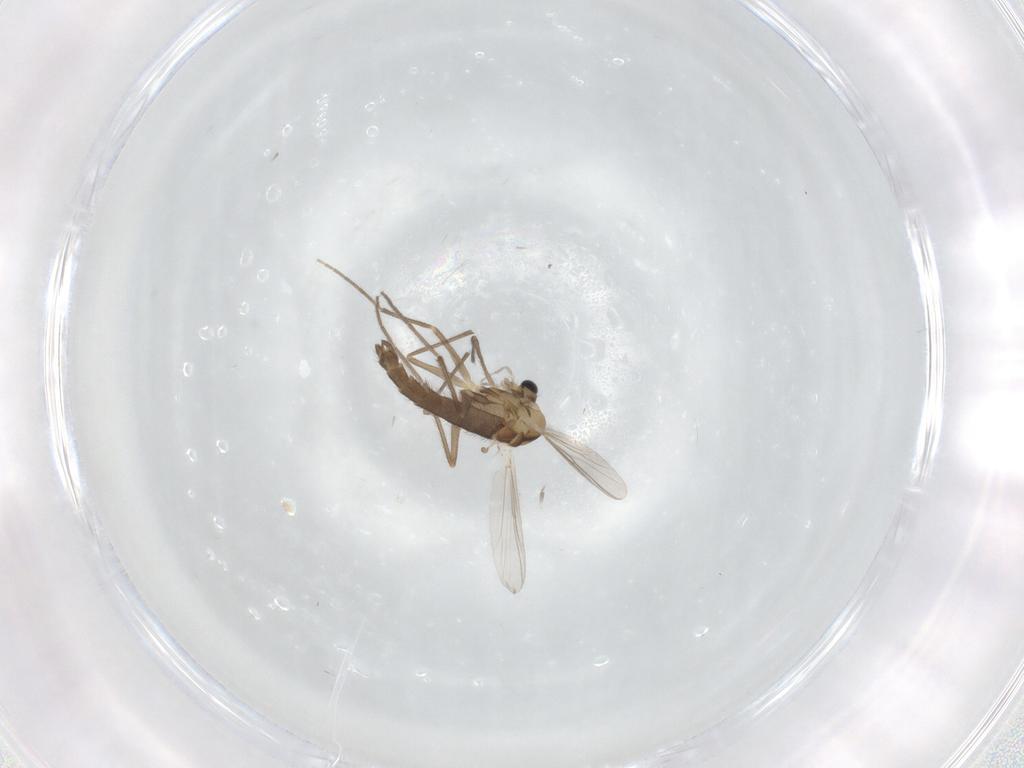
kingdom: Animalia
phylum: Arthropoda
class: Insecta
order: Diptera
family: Chironomidae
